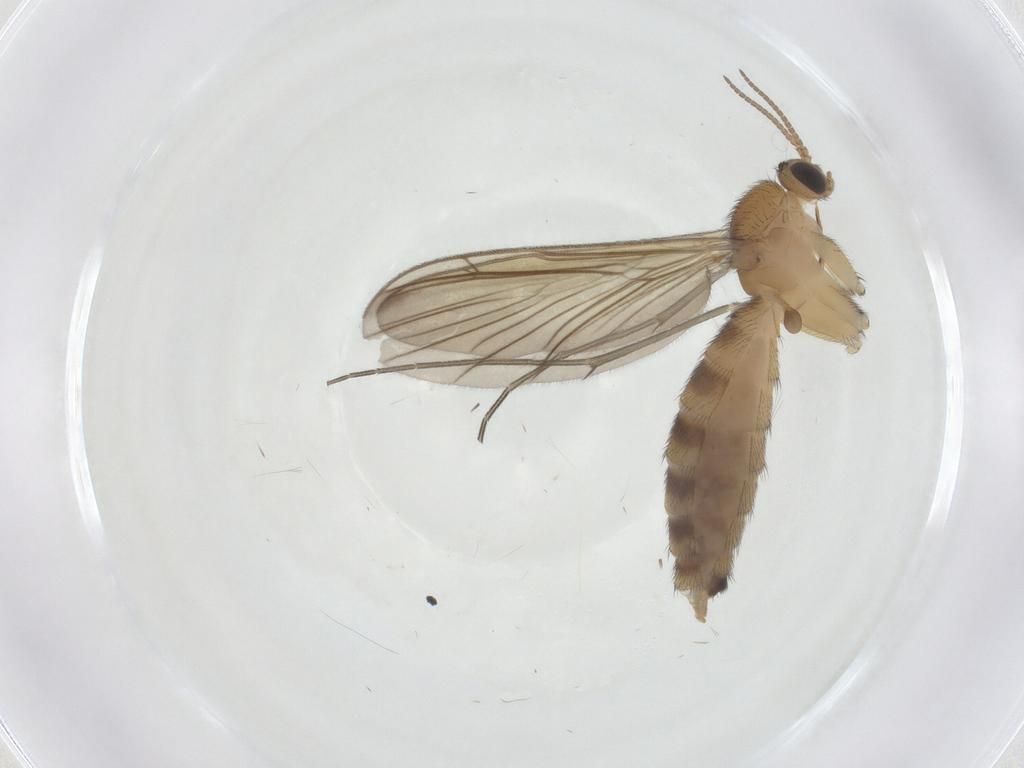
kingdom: Animalia
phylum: Arthropoda
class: Insecta
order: Diptera
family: Keroplatidae
